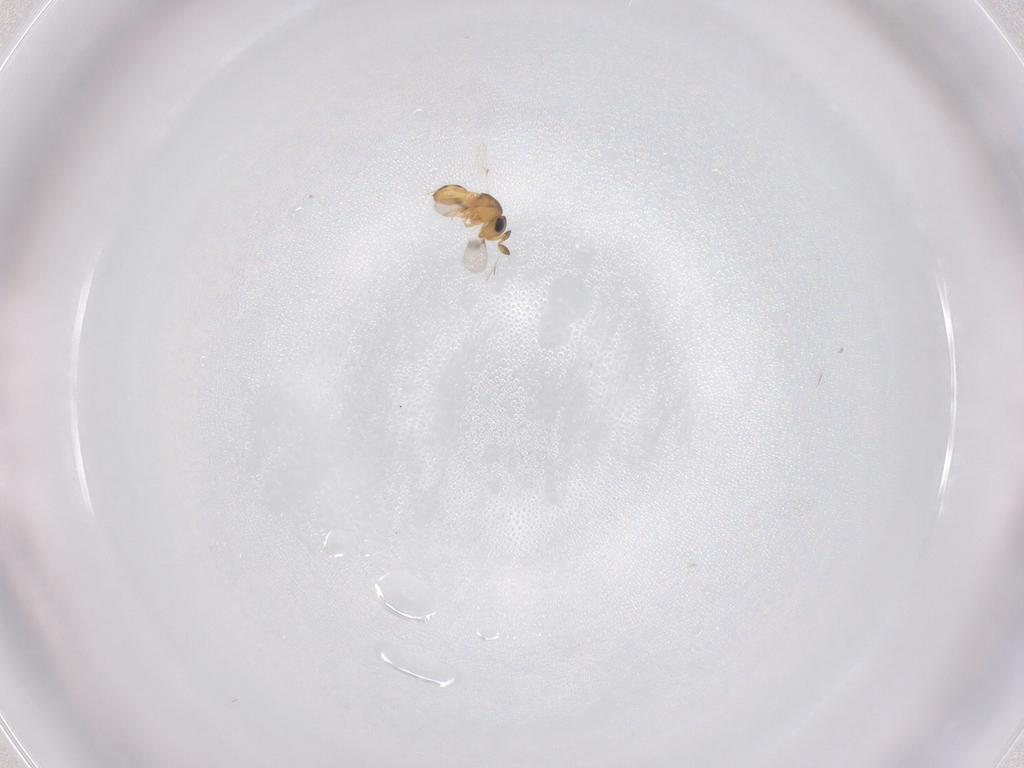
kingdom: Animalia
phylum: Arthropoda
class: Insecta
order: Hymenoptera
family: Scelionidae
